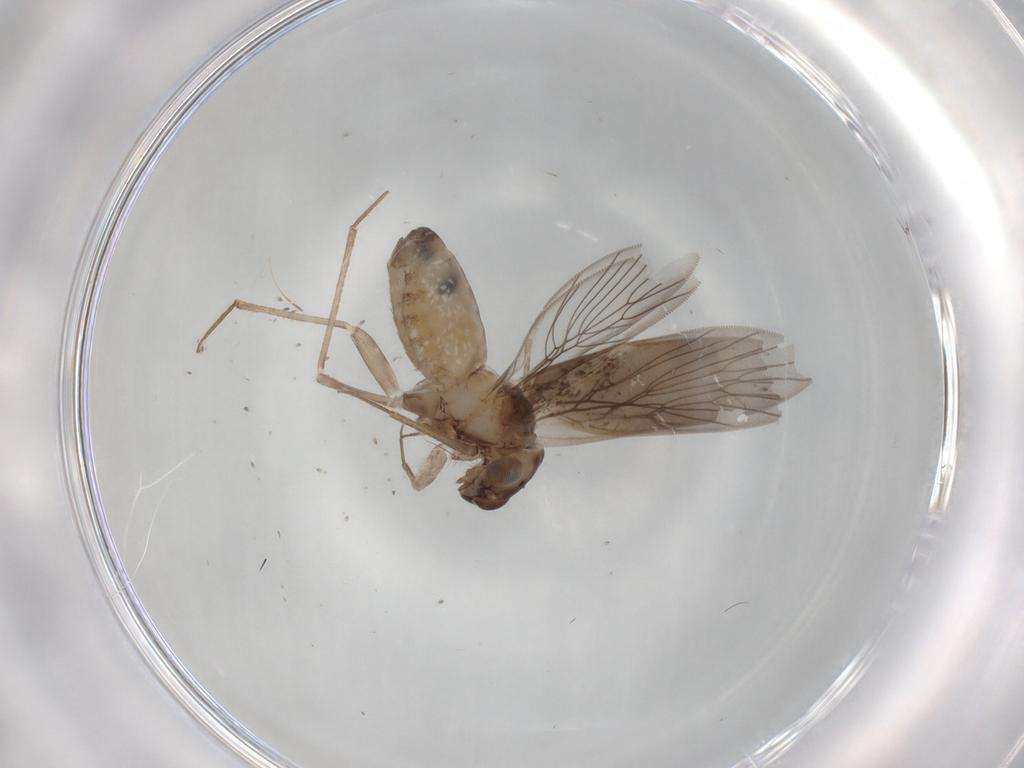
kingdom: Animalia
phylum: Arthropoda
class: Insecta
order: Psocodea
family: Lepidopsocidae
